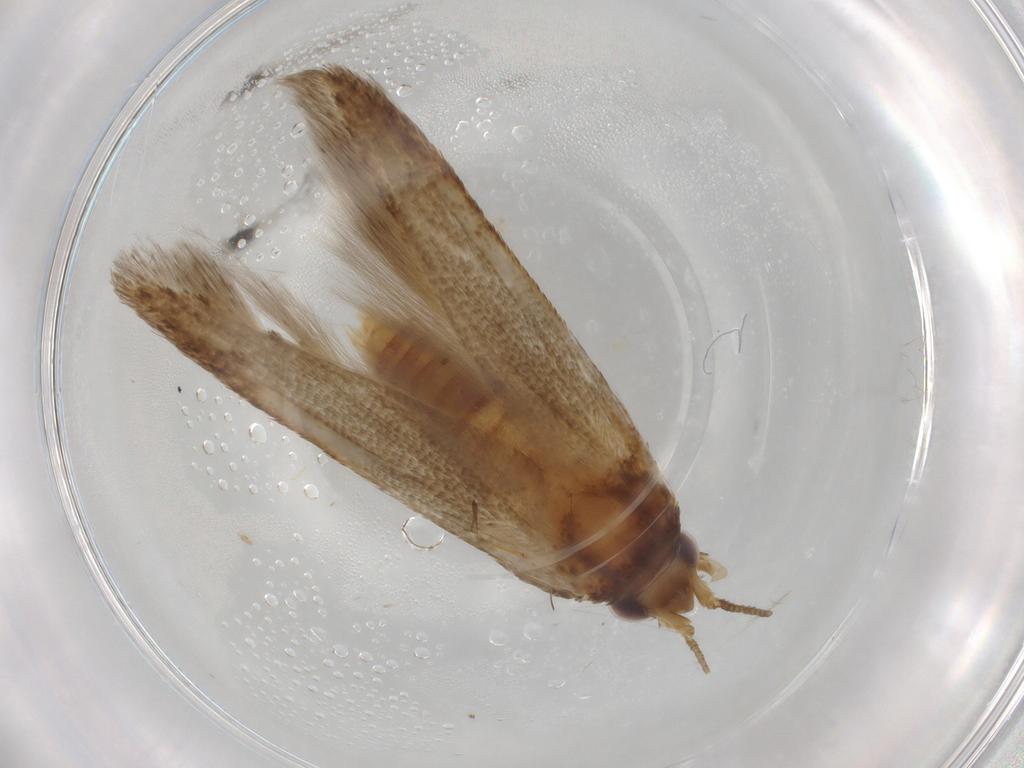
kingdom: Animalia
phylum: Arthropoda
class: Insecta
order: Lepidoptera
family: Blastobasidae
